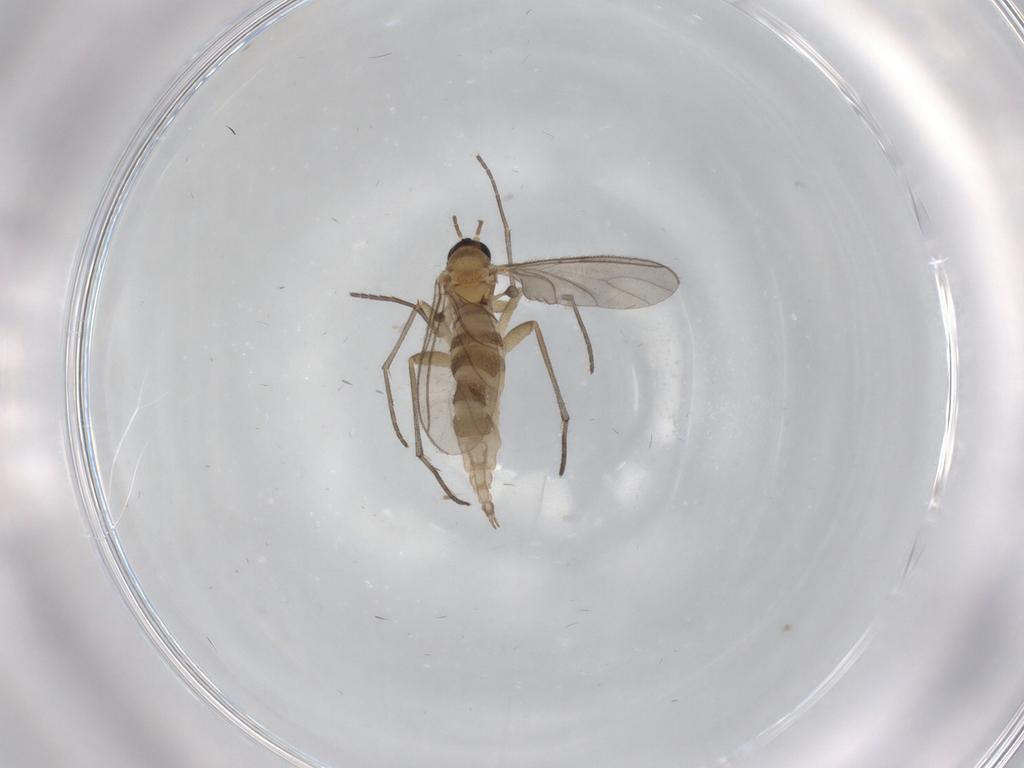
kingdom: Animalia
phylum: Arthropoda
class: Insecta
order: Diptera
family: Sciaridae
